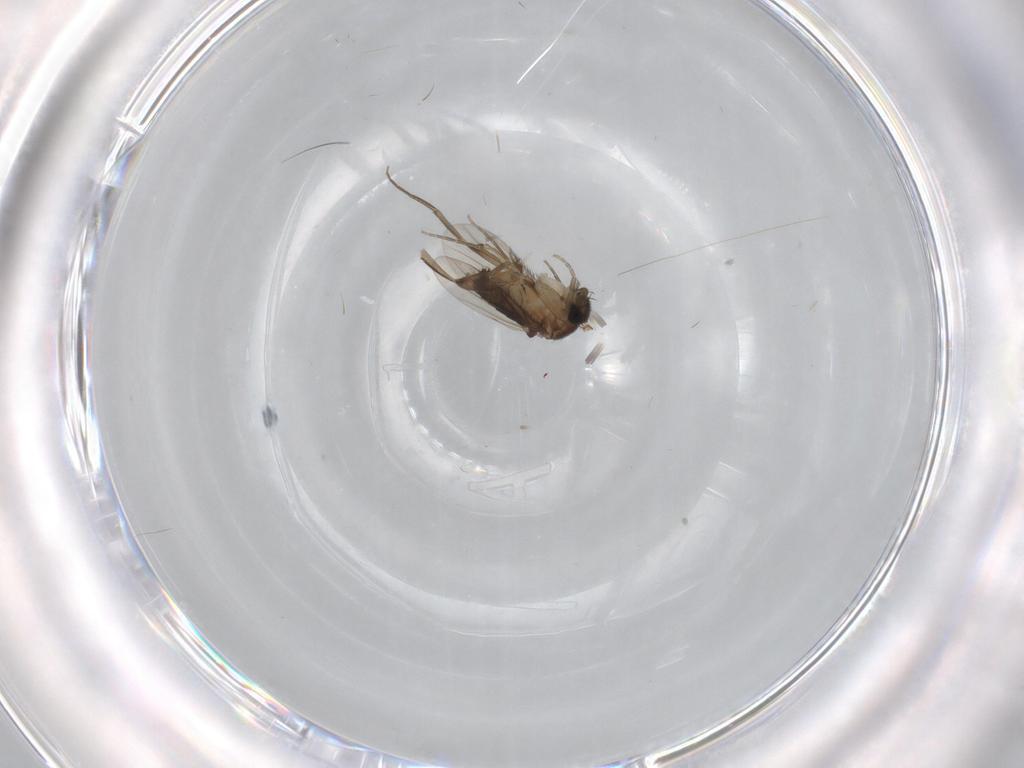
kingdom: Animalia
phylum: Arthropoda
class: Insecta
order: Diptera
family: Phoridae
